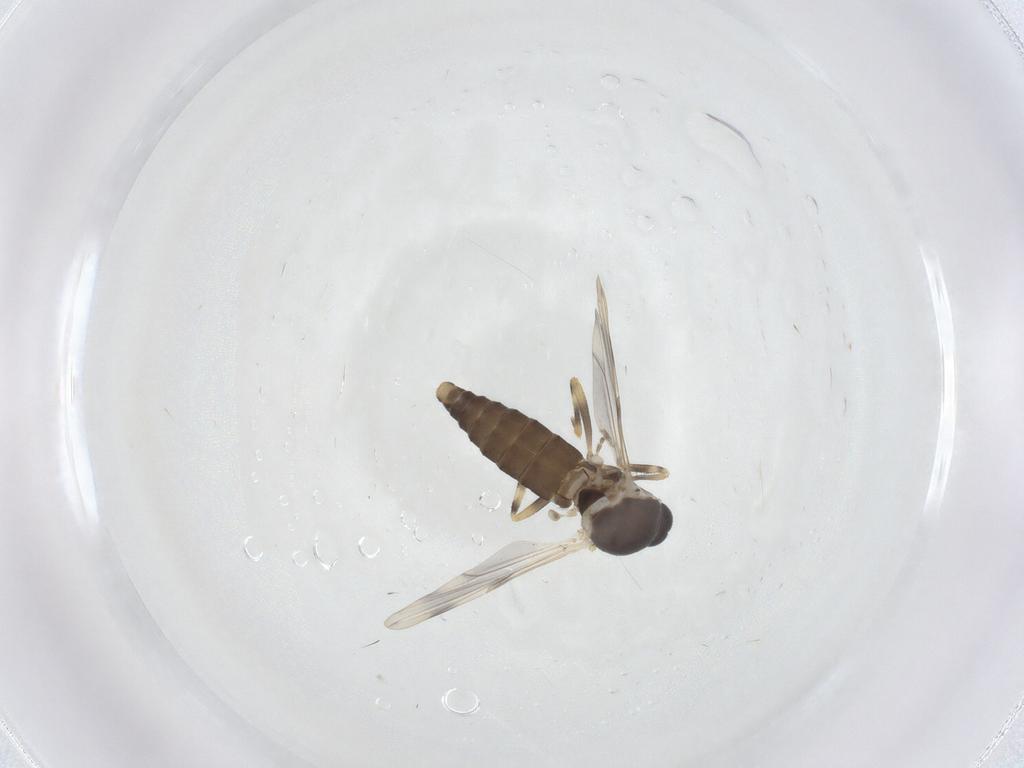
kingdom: Animalia
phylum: Arthropoda
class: Insecta
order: Diptera
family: Ceratopogonidae
